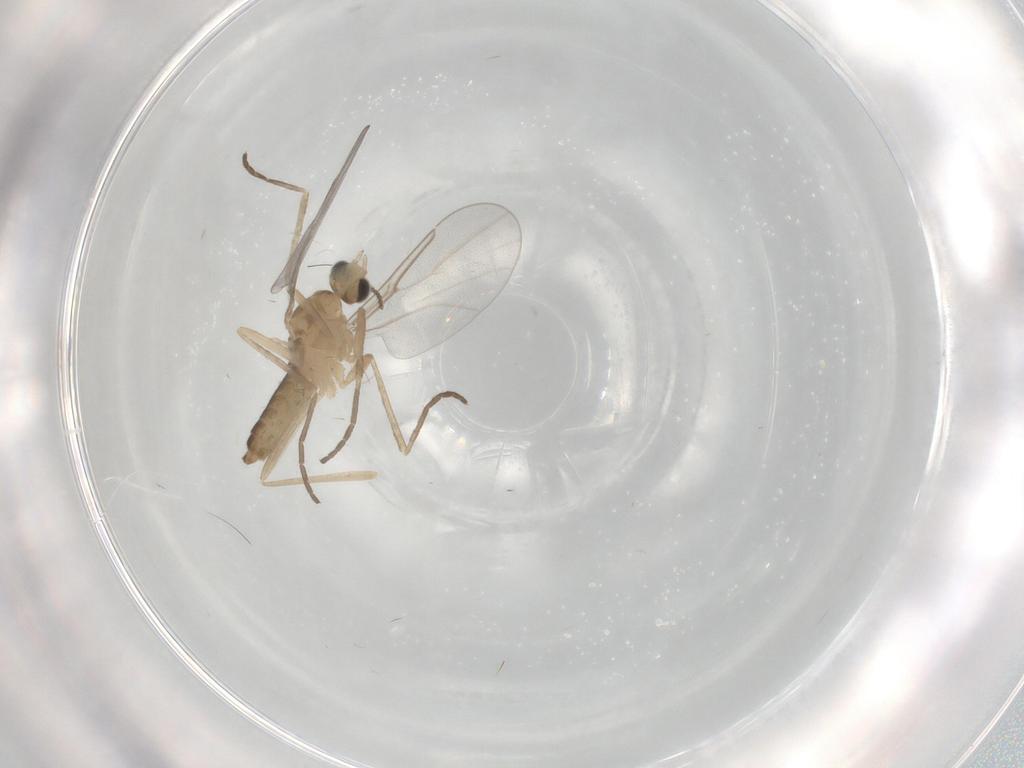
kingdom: Animalia
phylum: Arthropoda
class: Insecta
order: Diptera
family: Cecidomyiidae
